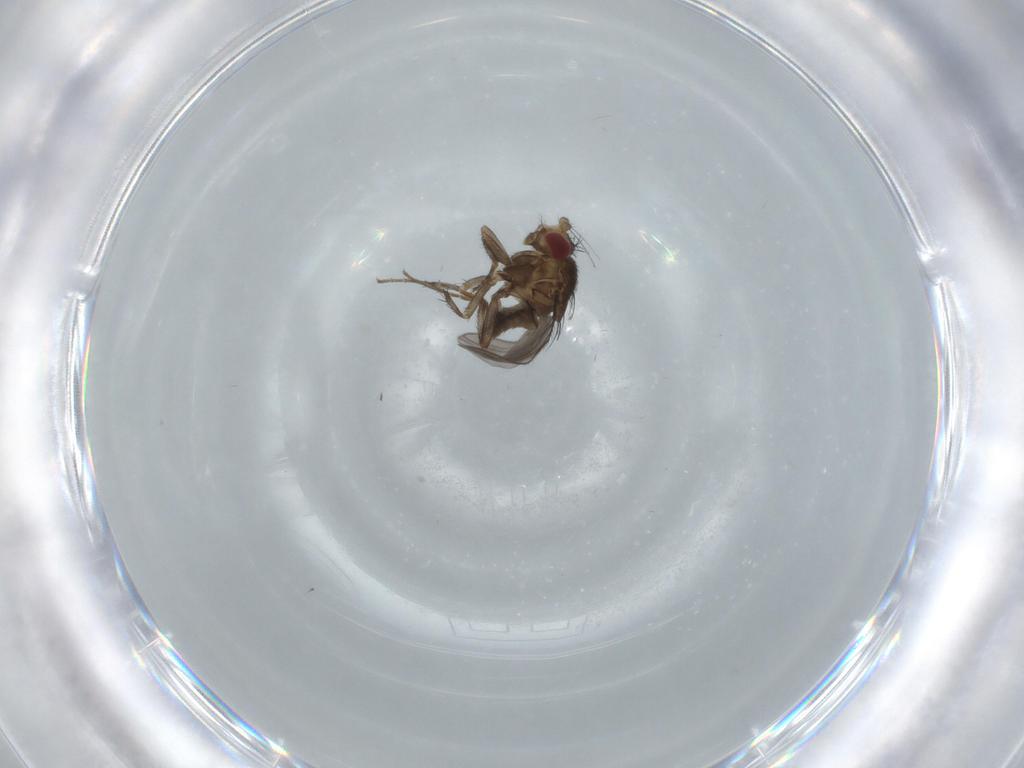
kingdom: Animalia
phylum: Arthropoda
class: Insecta
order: Diptera
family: Sphaeroceridae
